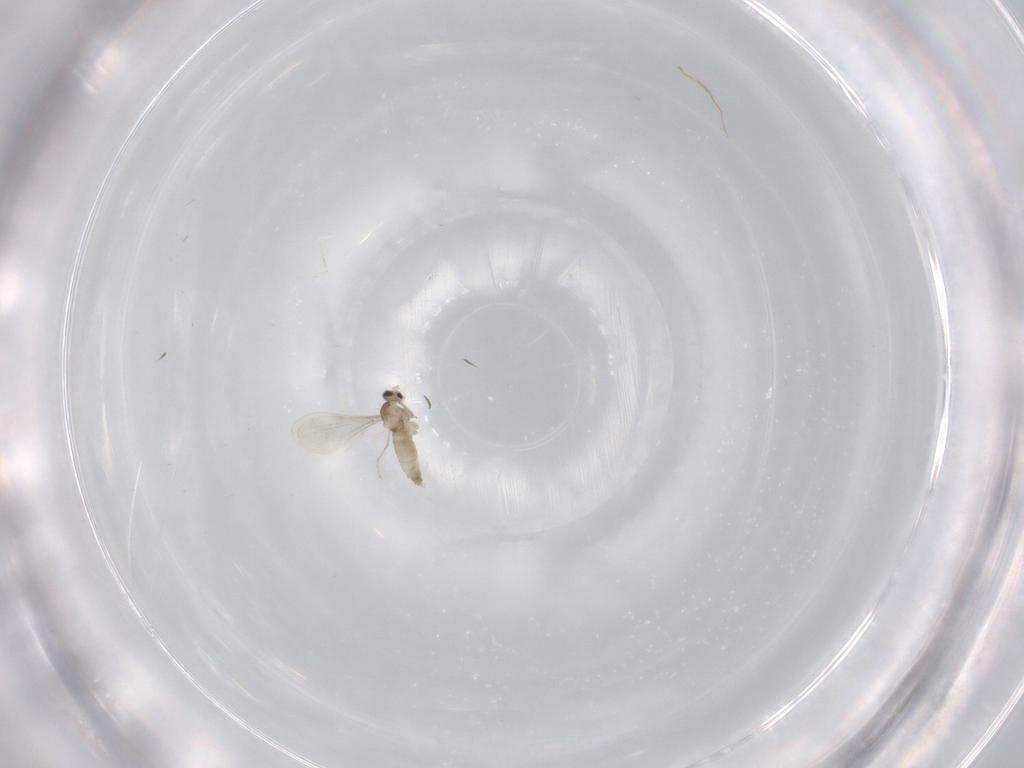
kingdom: Animalia
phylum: Arthropoda
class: Insecta
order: Diptera
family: Cecidomyiidae
